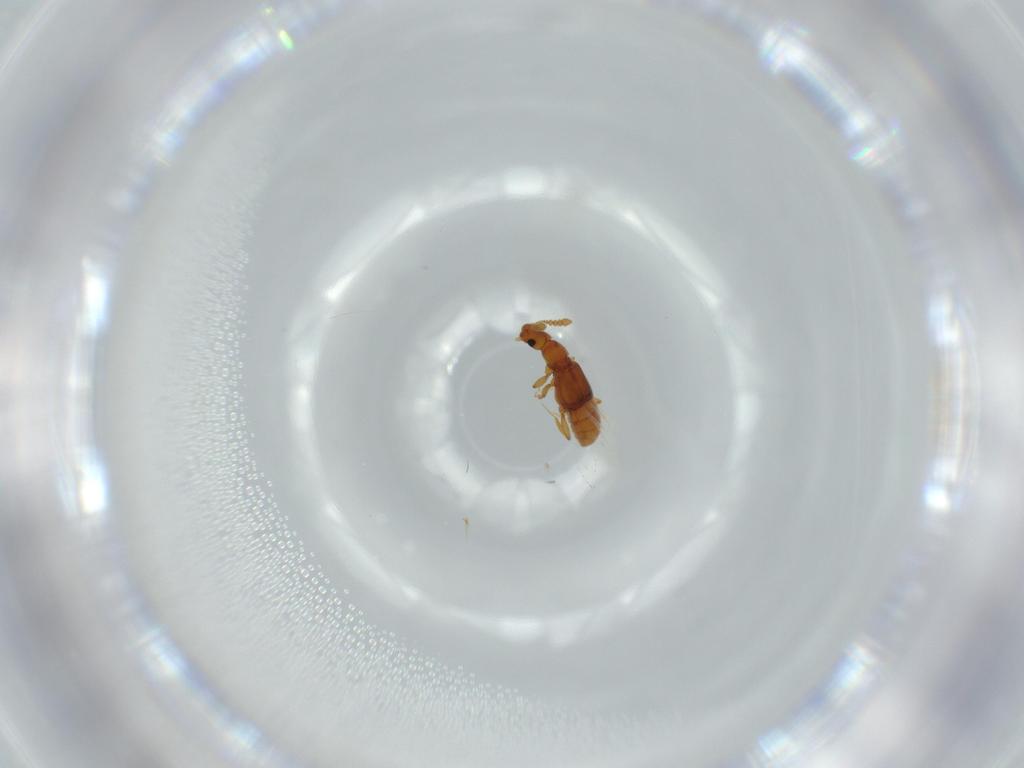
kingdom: Animalia
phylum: Arthropoda
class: Insecta
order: Coleoptera
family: Staphylinidae
